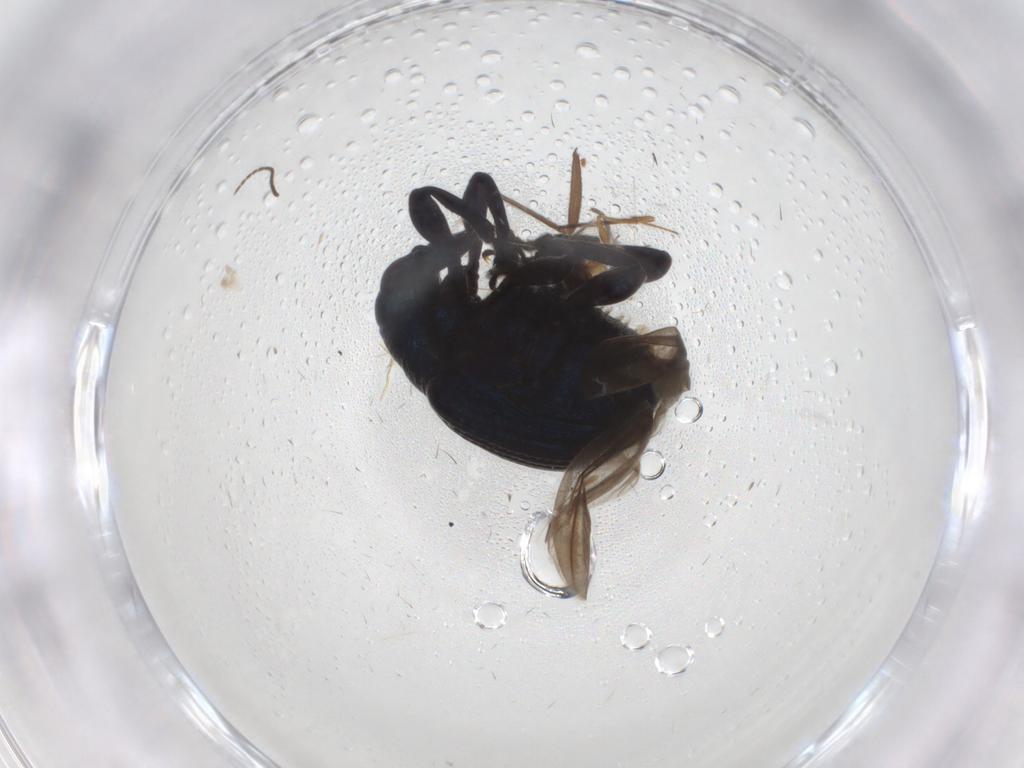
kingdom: Animalia
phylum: Arthropoda
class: Insecta
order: Coleoptera
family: Attelabidae
